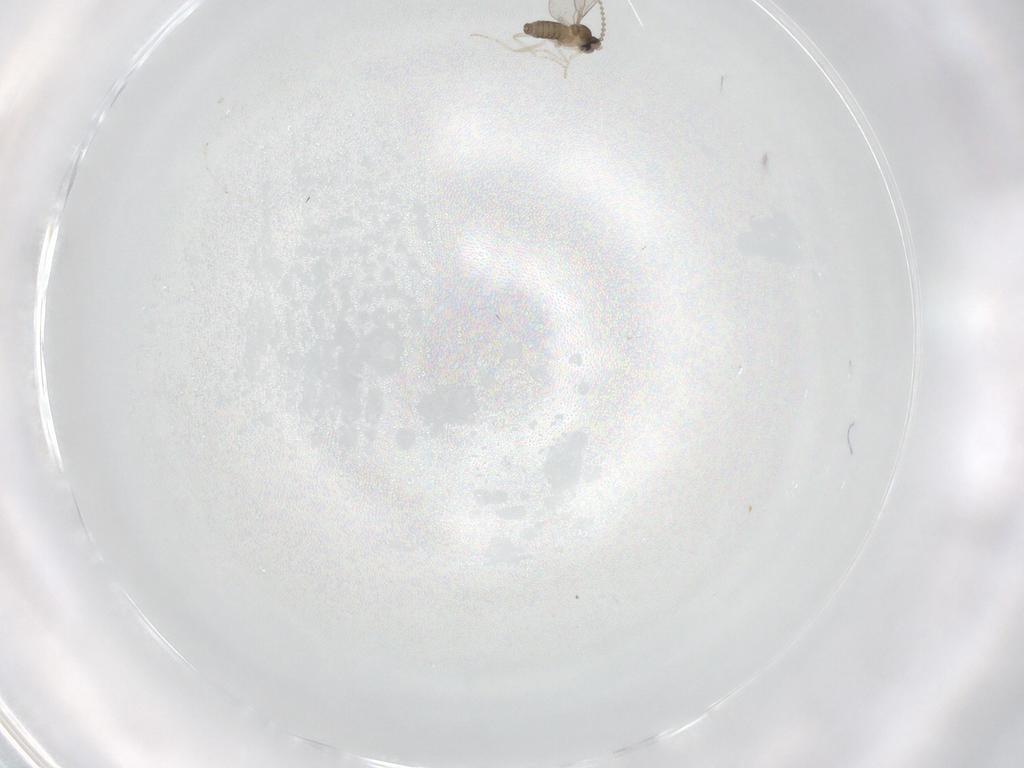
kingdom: Animalia
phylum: Arthropoda
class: Insecta
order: Diptera
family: Cecidomyiidae
